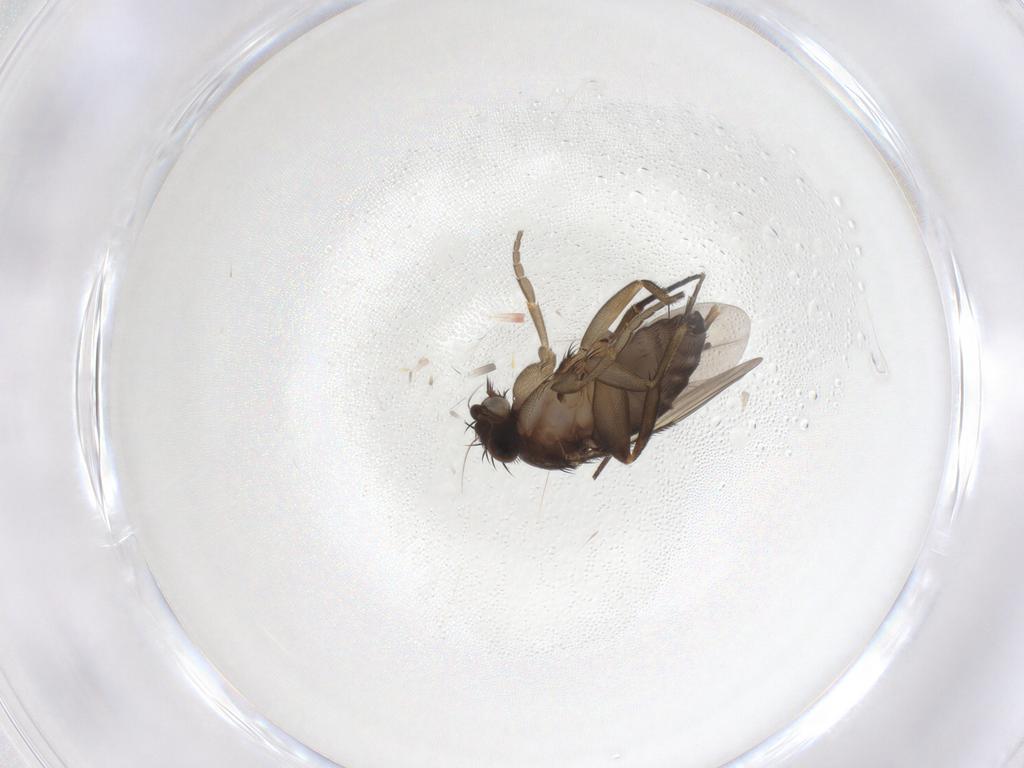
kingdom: Animalia
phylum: Arthropoda
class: Insecta
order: Diptera
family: Phoridae
